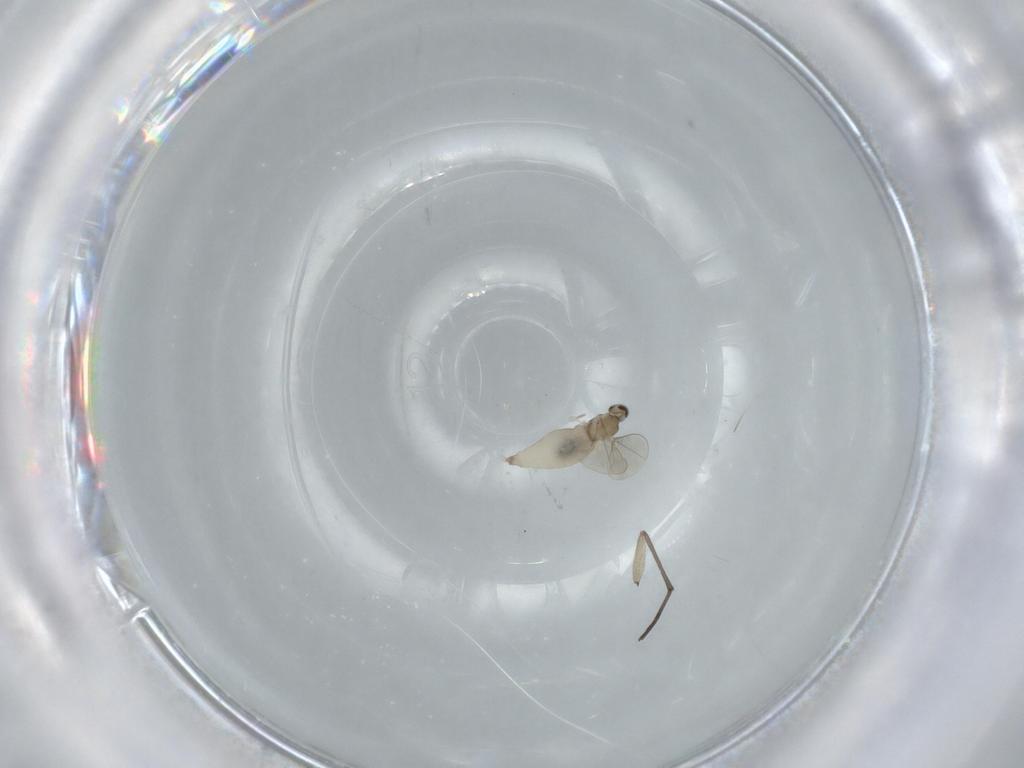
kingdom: Animalia
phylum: Arthropoda
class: Insecta
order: Diptera
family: Sciaridae
